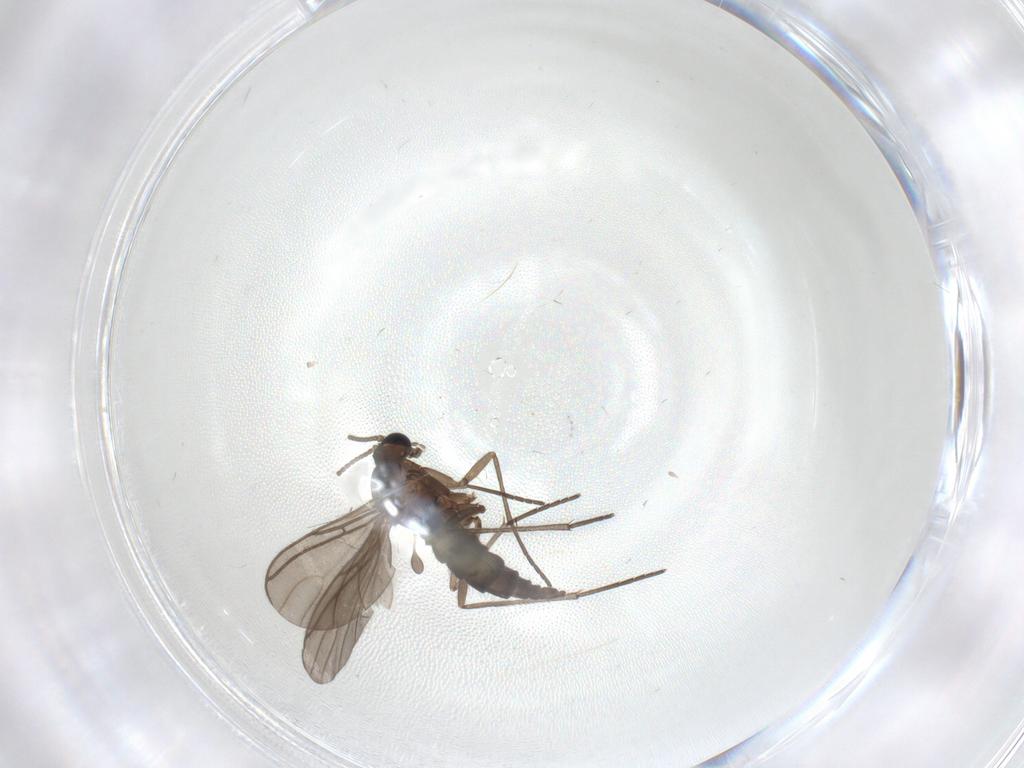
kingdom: Animalia
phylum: Arthropoda
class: Insecta
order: Diptera
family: Sciaridae
